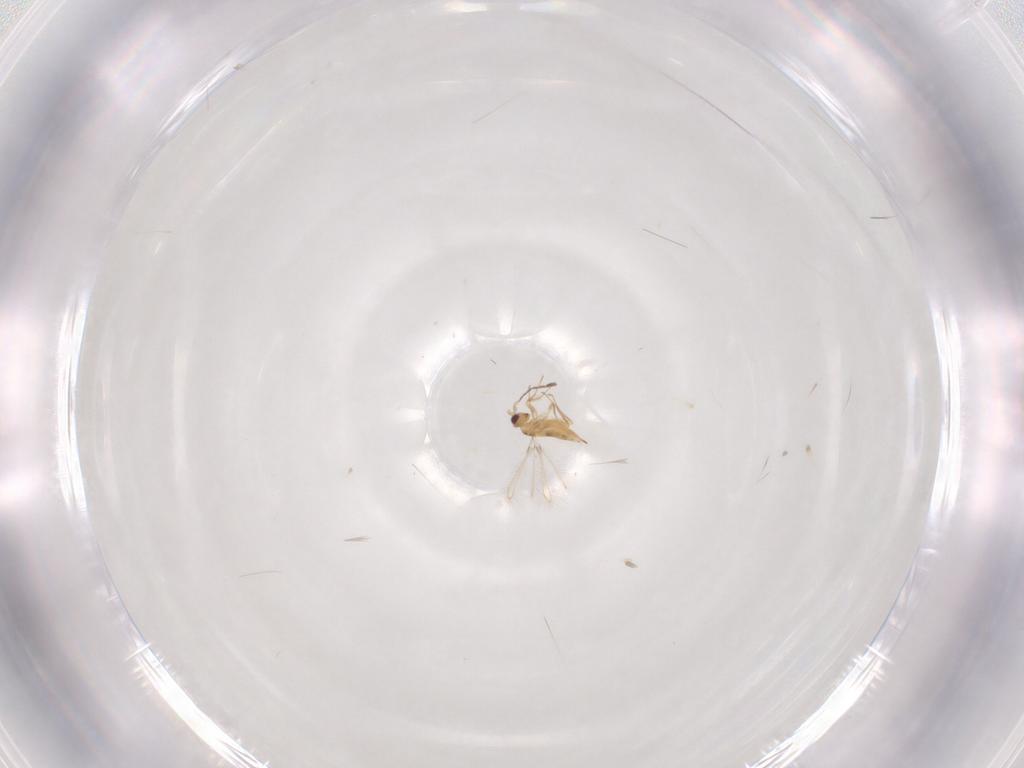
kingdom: Animalia
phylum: Arthropoda
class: Insecta
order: Hymenoptera
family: Mymaridae
